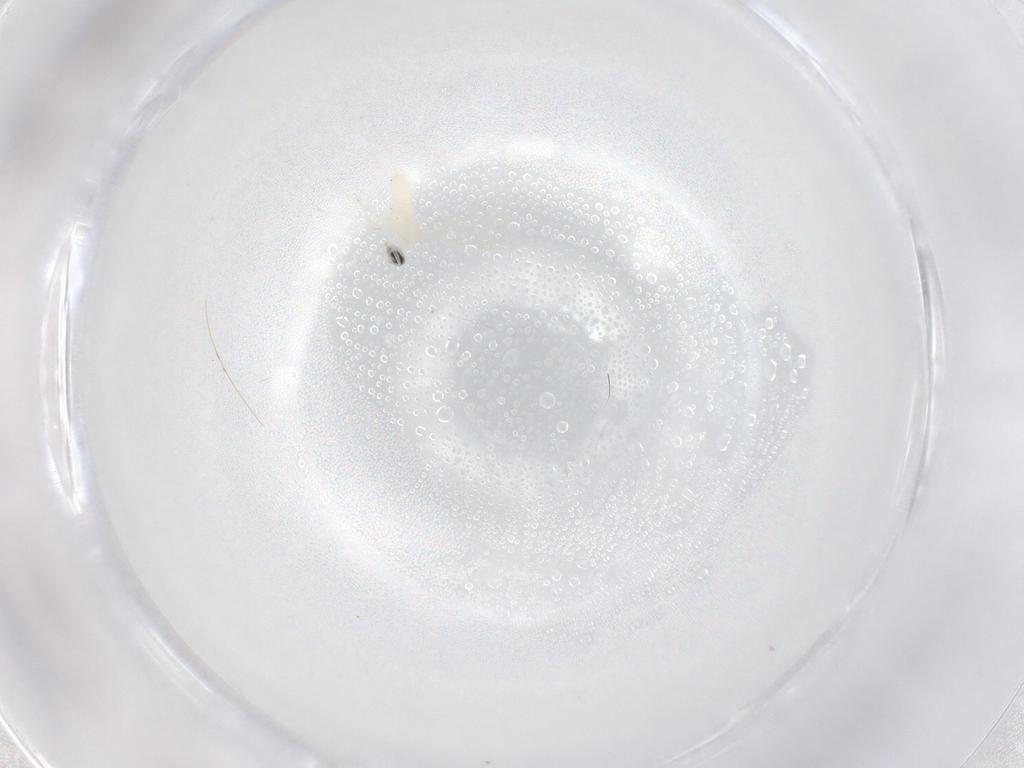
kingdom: Animalia
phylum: Arthropoda
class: Insecta
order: Diptera
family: Cecidomyiidae
